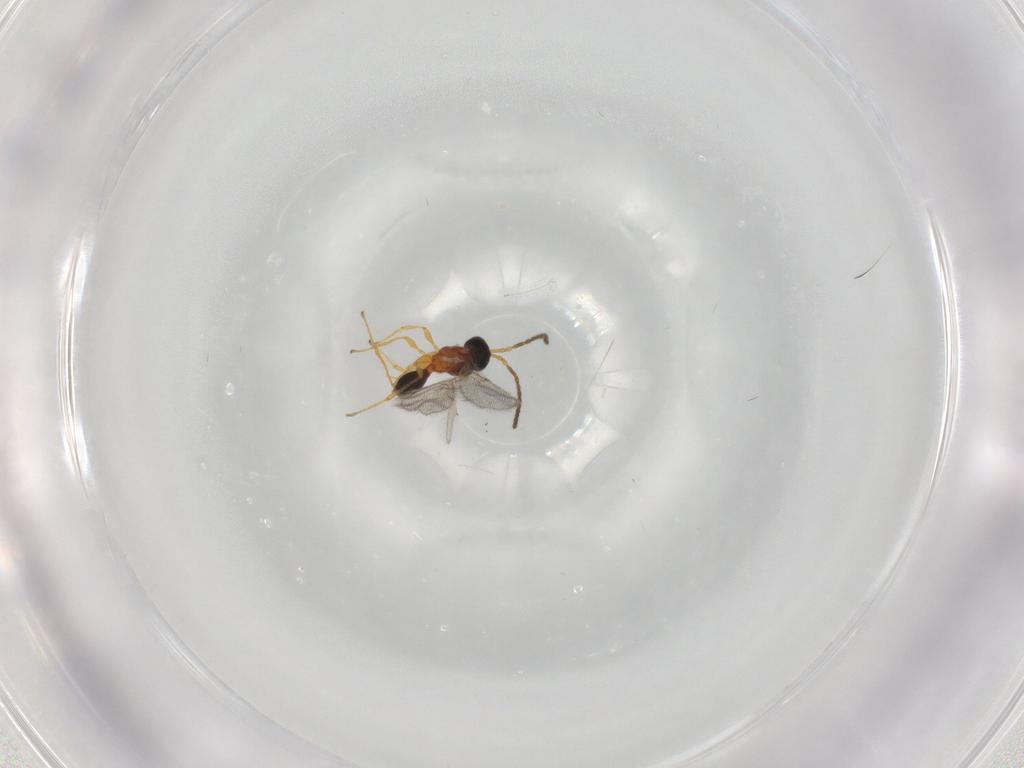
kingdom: Animalia
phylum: Arthropoda
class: Insecta
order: Hymenoptera
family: Diapriidae
